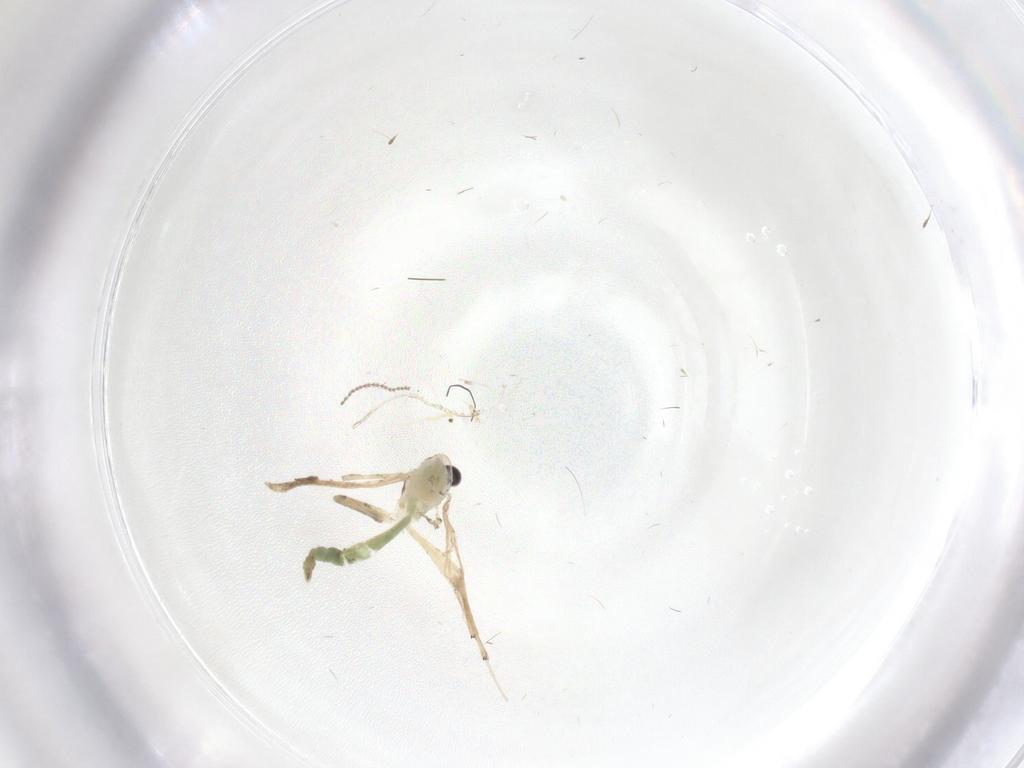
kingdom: Animalia
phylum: Arthropoda
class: Insecta
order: Diptera
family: Chironomidae
